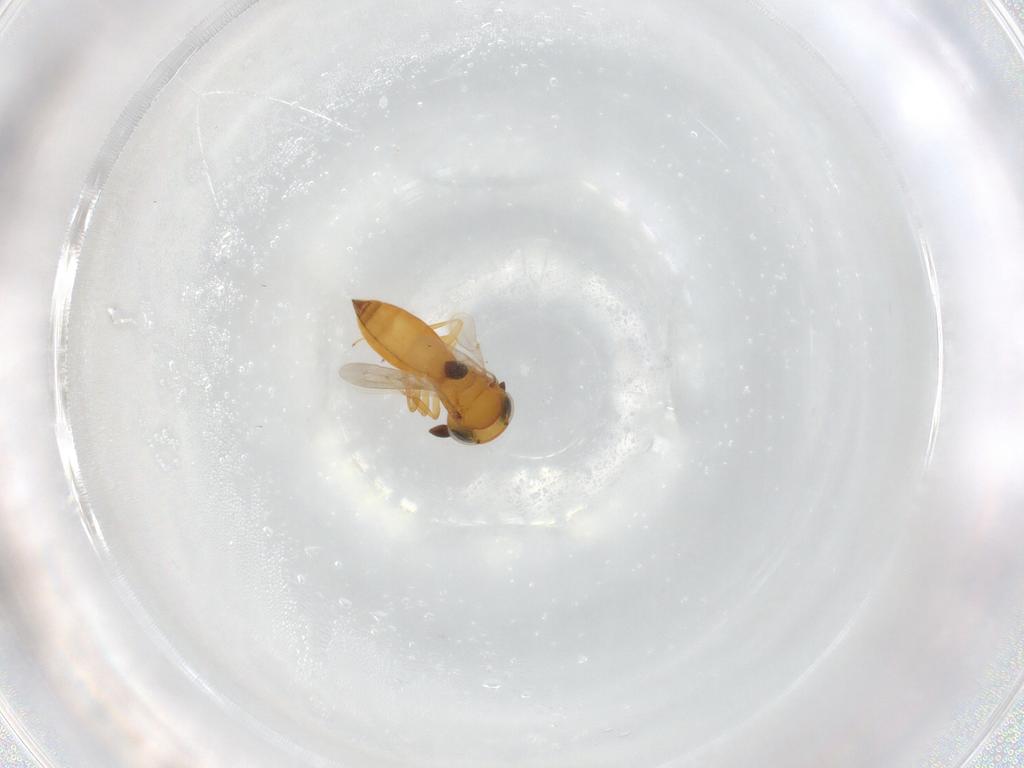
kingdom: Animalia
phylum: Arthropoda
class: Insecta
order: Hymenoptera
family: Scelionidae
